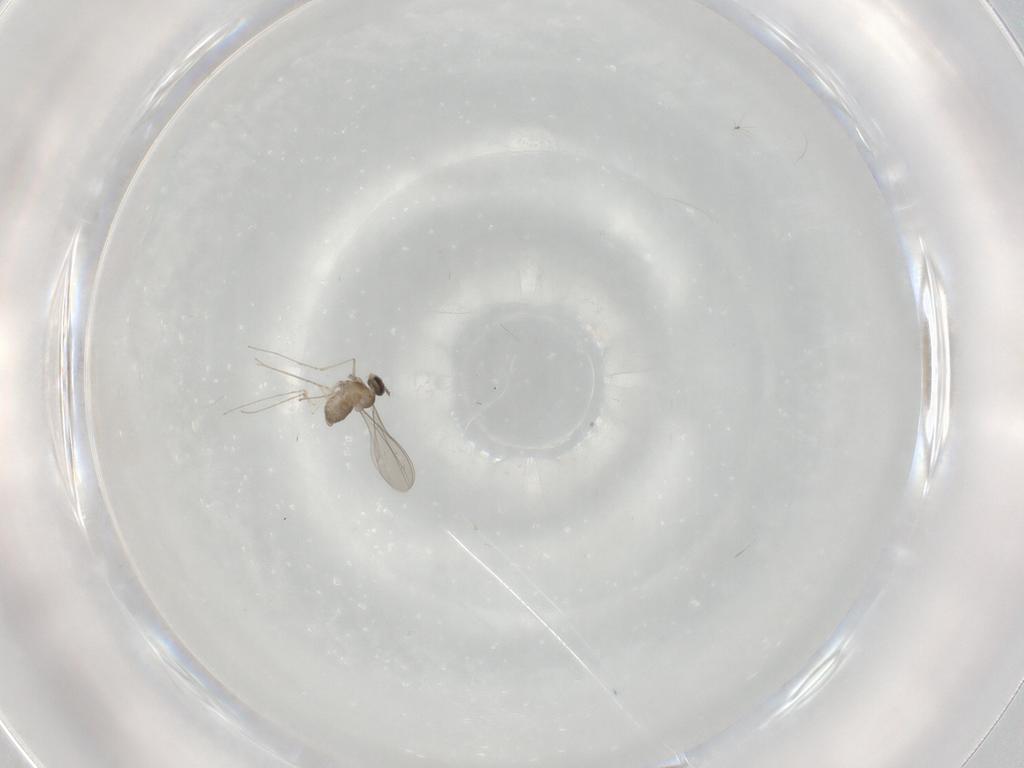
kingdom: Animalia
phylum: Arthropoda
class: Insecta
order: Diptera
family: Cecidomyiidae
